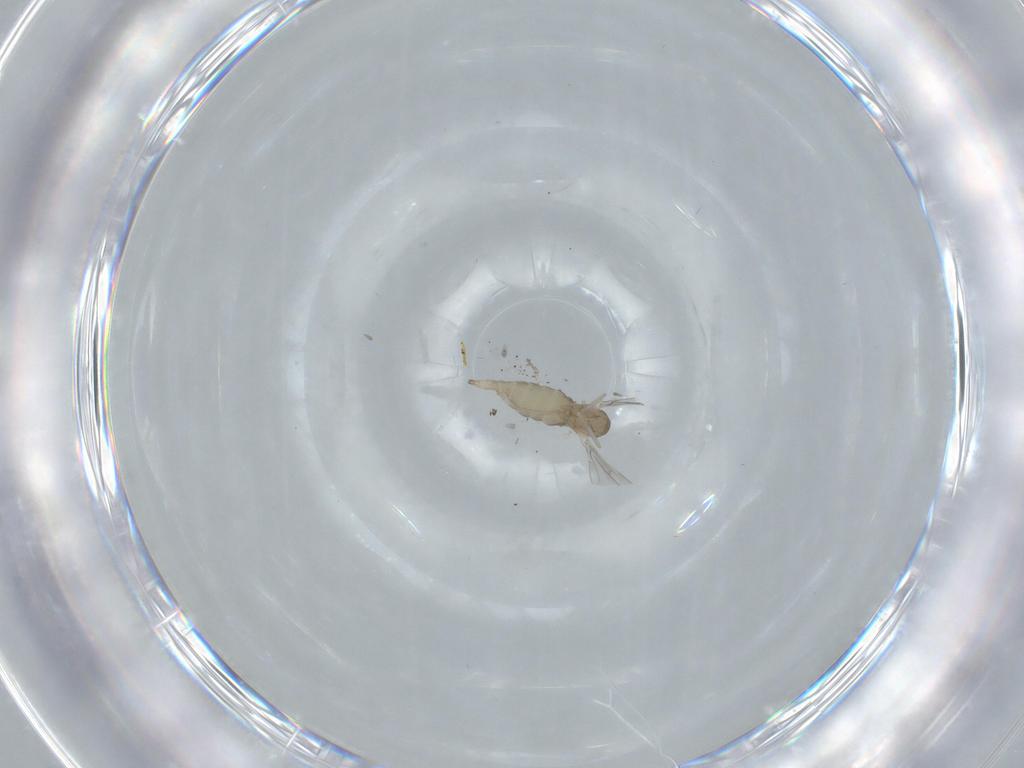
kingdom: Animalia
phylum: Arthropoda
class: Insecta
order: Diptera
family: Cecidomyiidae
